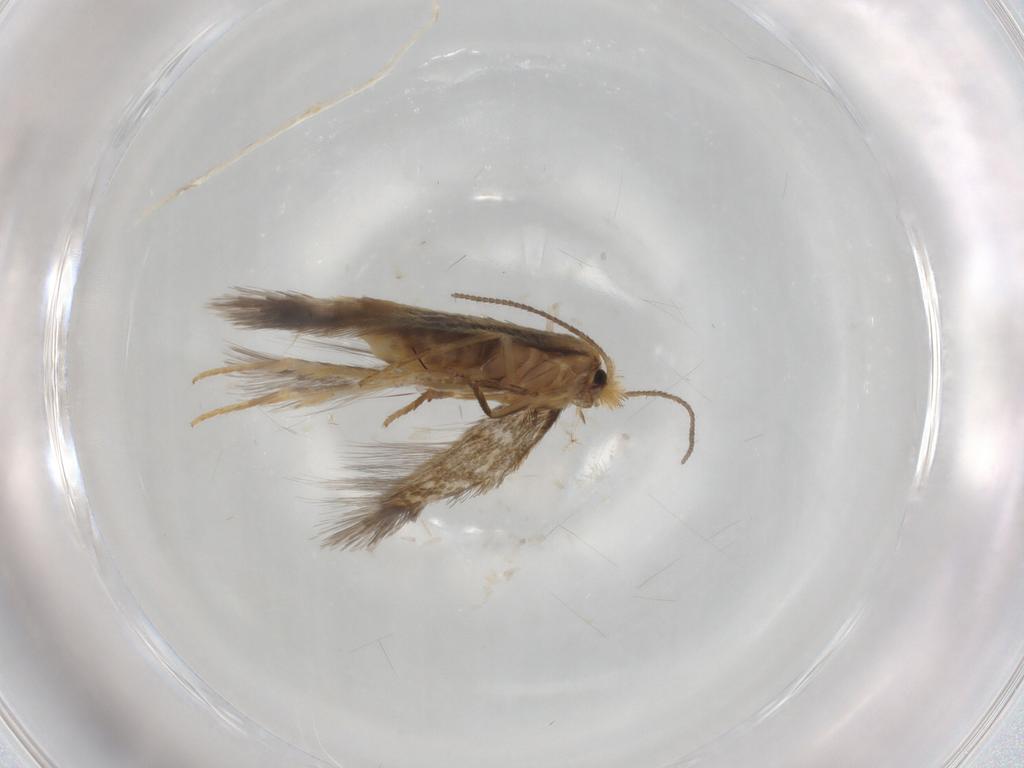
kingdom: Animalia
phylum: Arthropoda
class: Insecta
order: Lepidoptera
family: Nepticulidae
